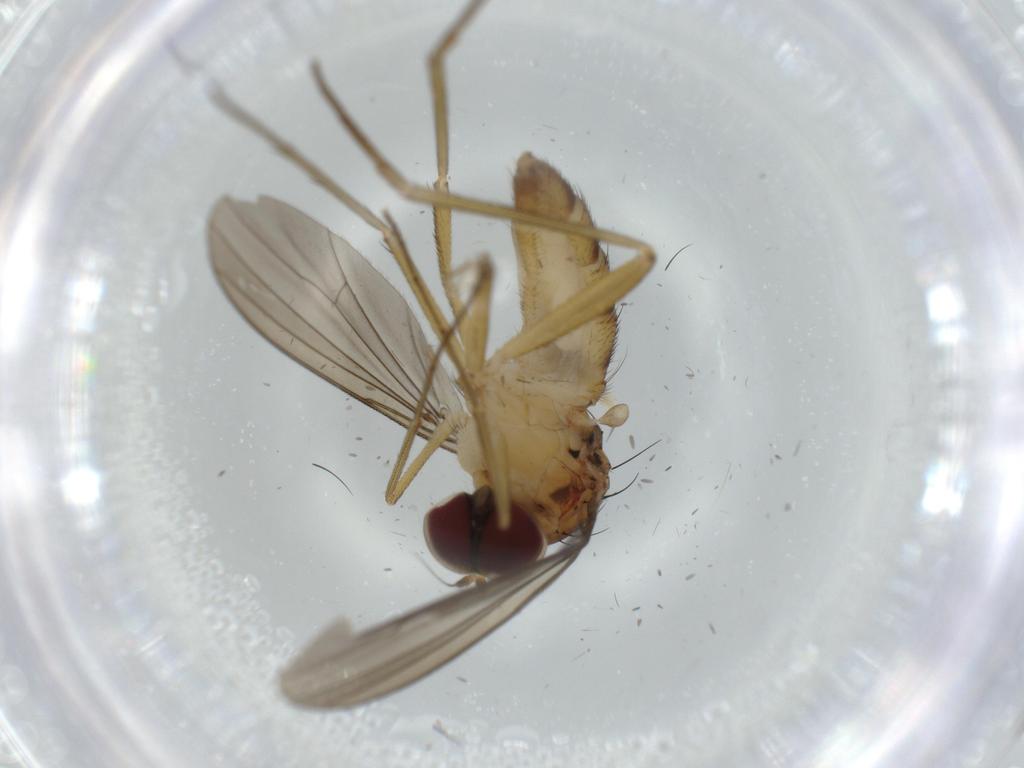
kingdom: Animalia
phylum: Arthropoda
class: Insecta
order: Diptera
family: Dolichopodidae
